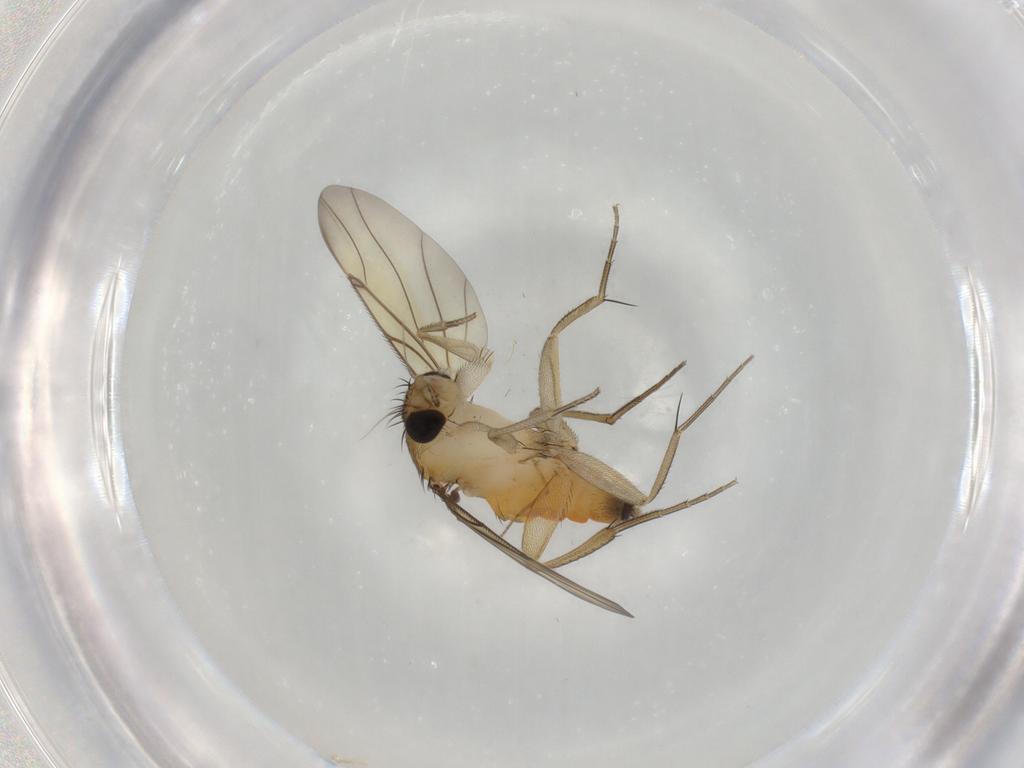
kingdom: Animalia
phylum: Arthropoda
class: Insecta
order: Diptera
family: Phoridae
